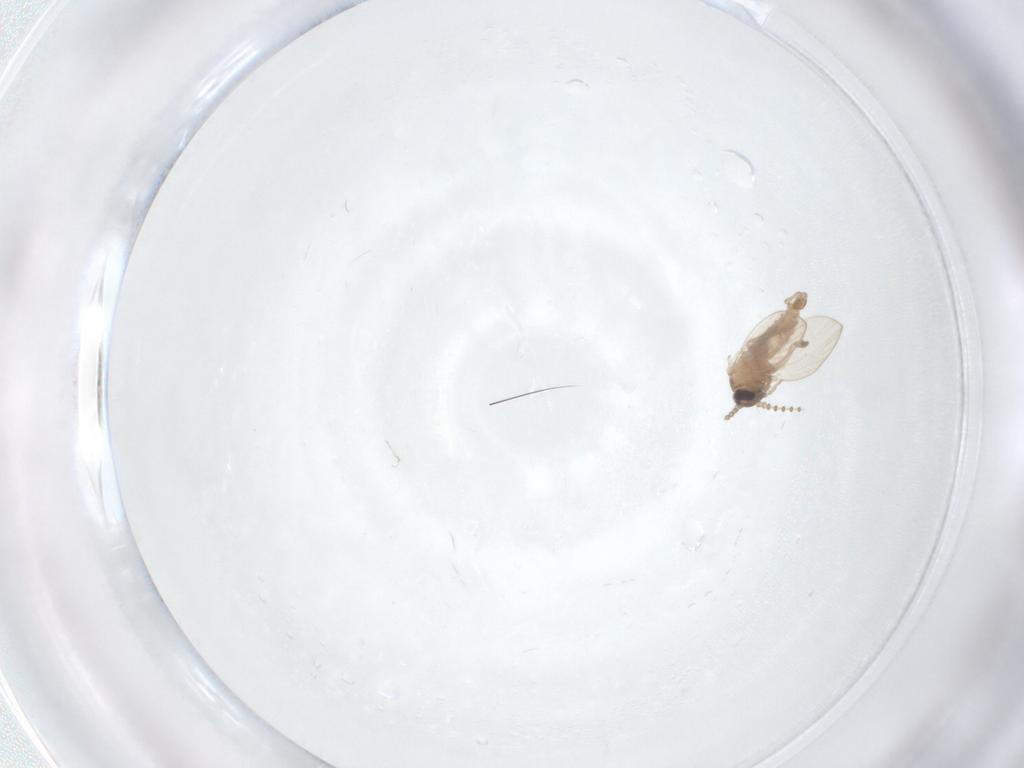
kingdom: Animalia
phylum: Arthropoda
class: Insecta
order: Diptera
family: Psychodidae
